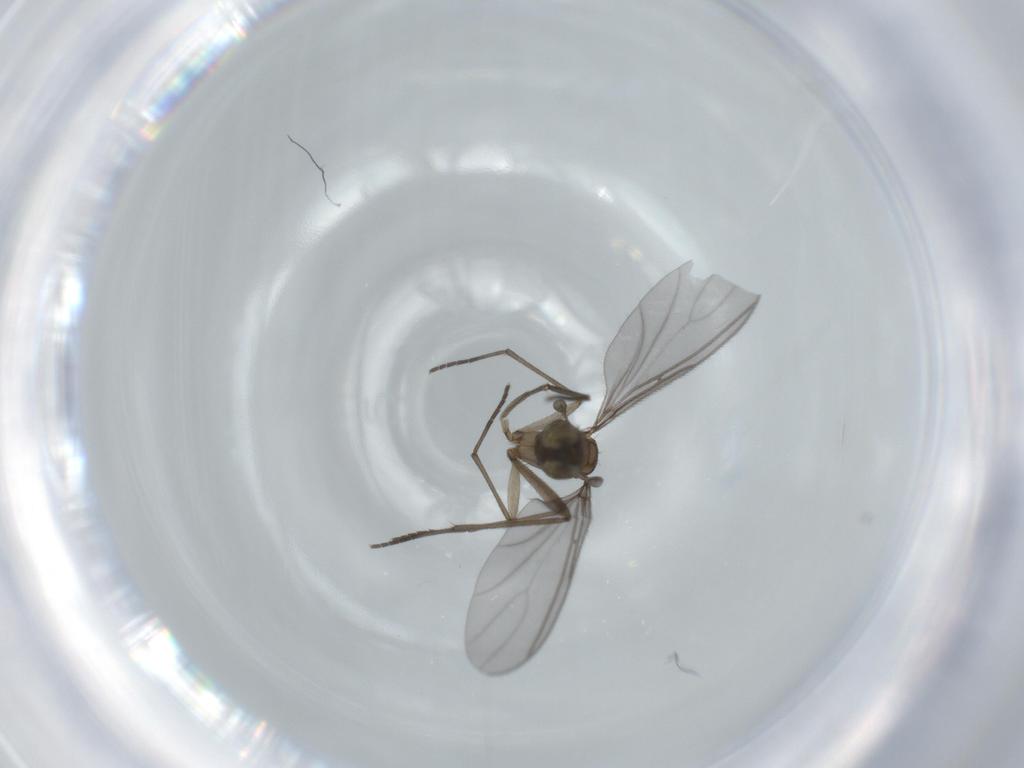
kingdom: Animalia
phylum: Arthropoda
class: Insecta
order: Diptera
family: Sciaridae
